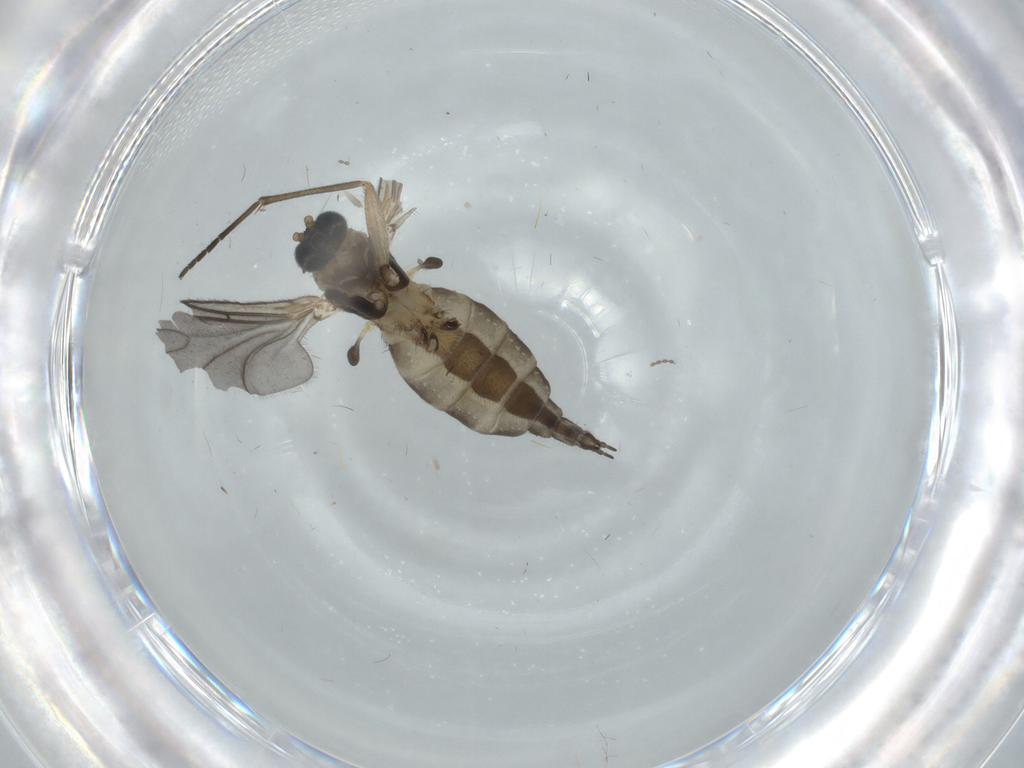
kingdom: Animalia
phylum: Arthropoda
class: Insecta
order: Diptera
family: Sciaridae
